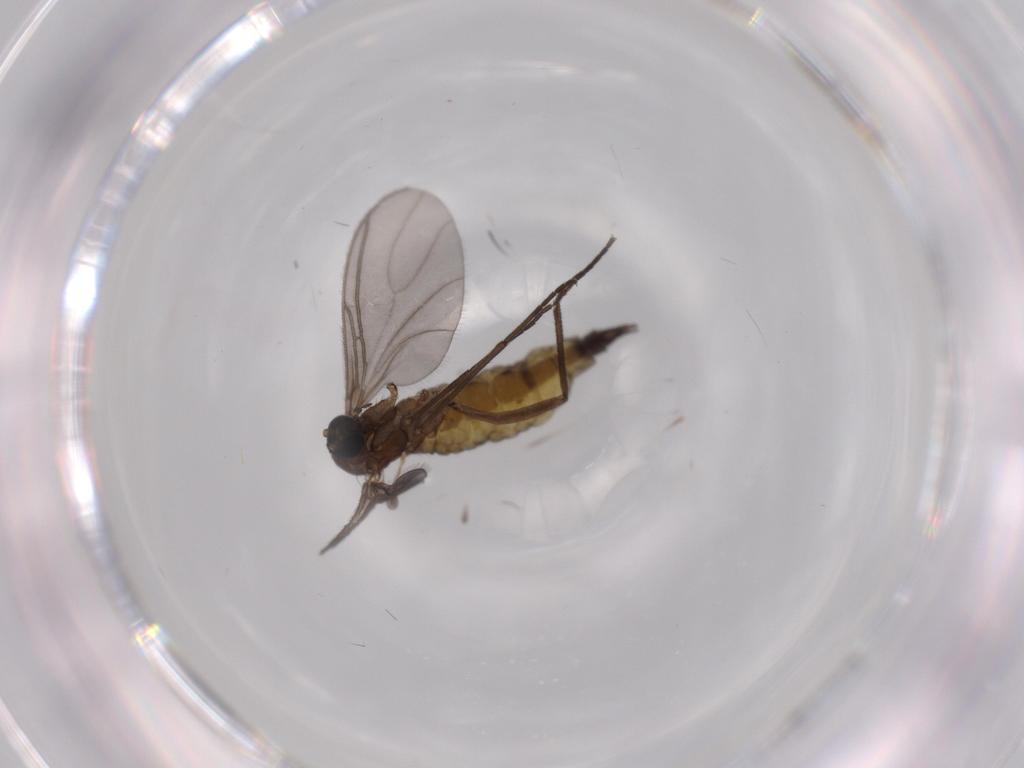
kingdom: Animalia
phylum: Arthropoda
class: Insecta
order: Diptera
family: Sciaridae
